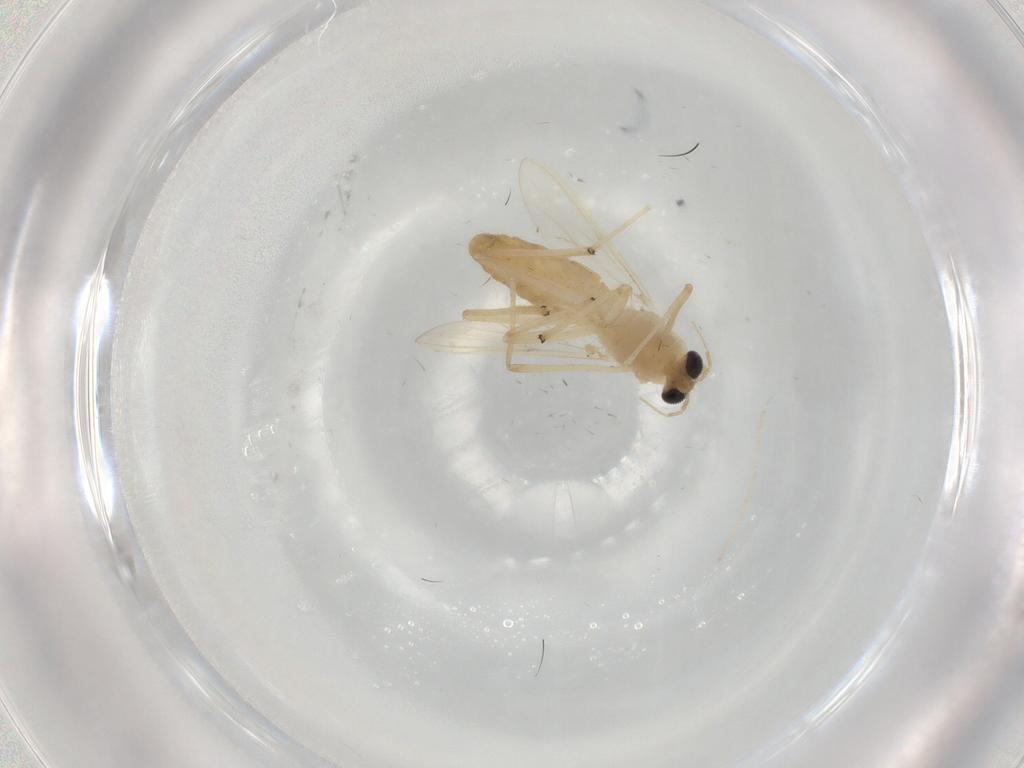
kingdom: Animalia
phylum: Arthropoda
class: Insecta
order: Diptera
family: Chironomidae
